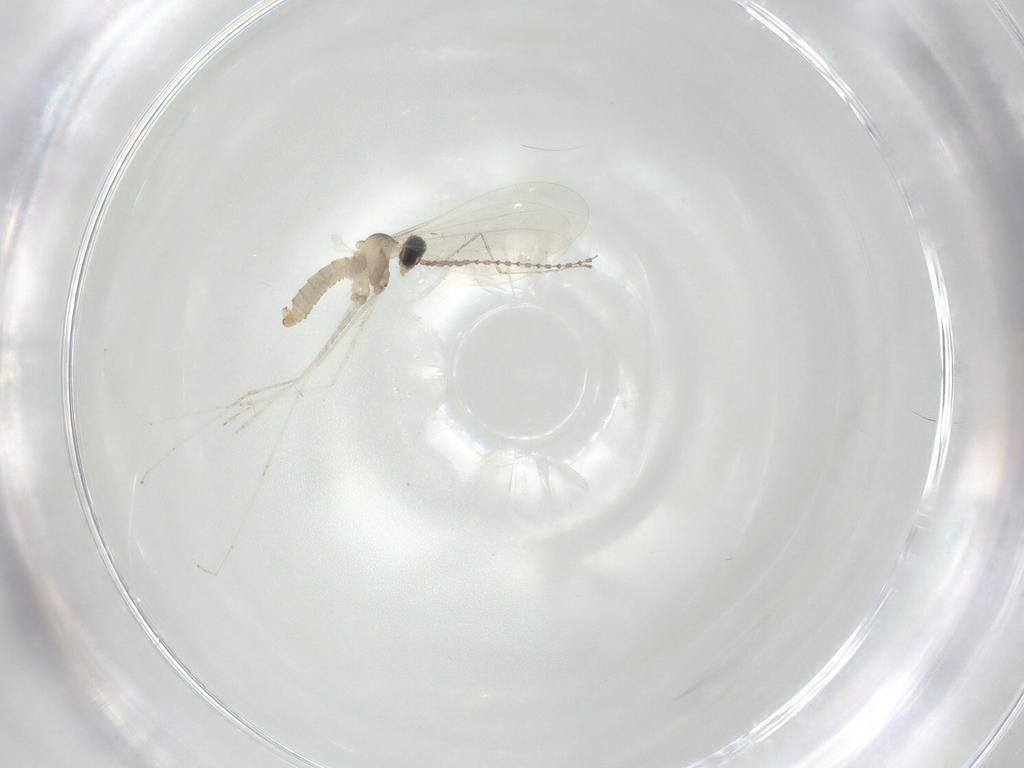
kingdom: Animalia
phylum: Arthropoda
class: Insecta
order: Diptera
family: Cecidomyiidae
